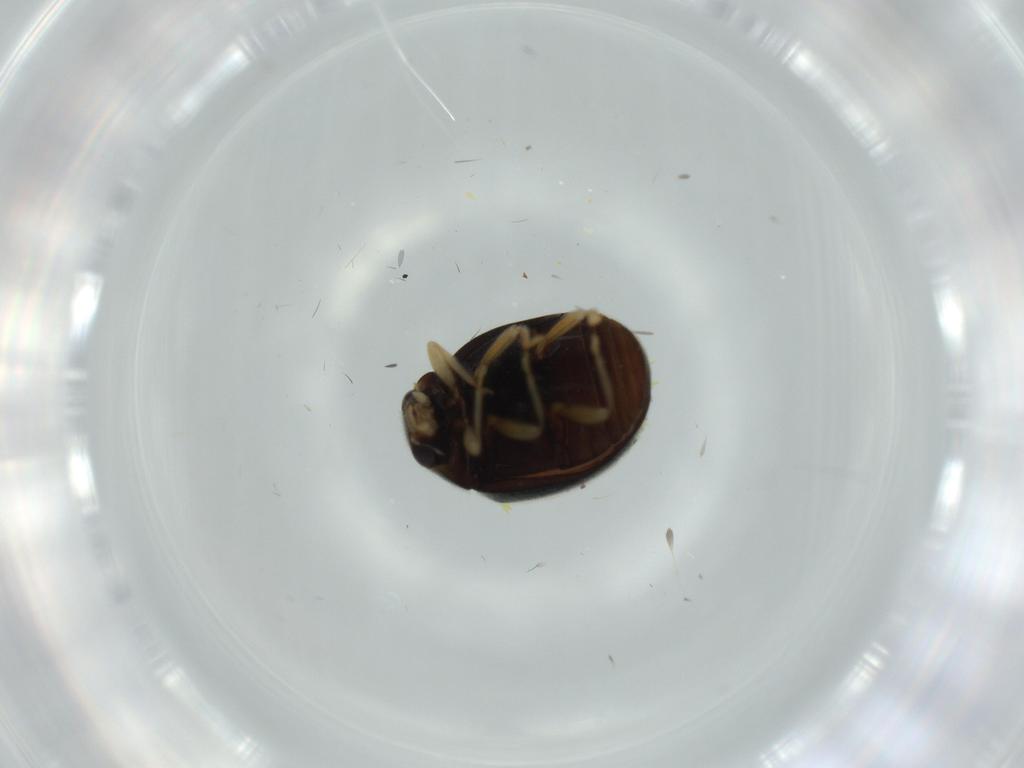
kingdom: Animalia
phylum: Arthropoda
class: Insecta
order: Coleoptera
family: Coccinellidae
